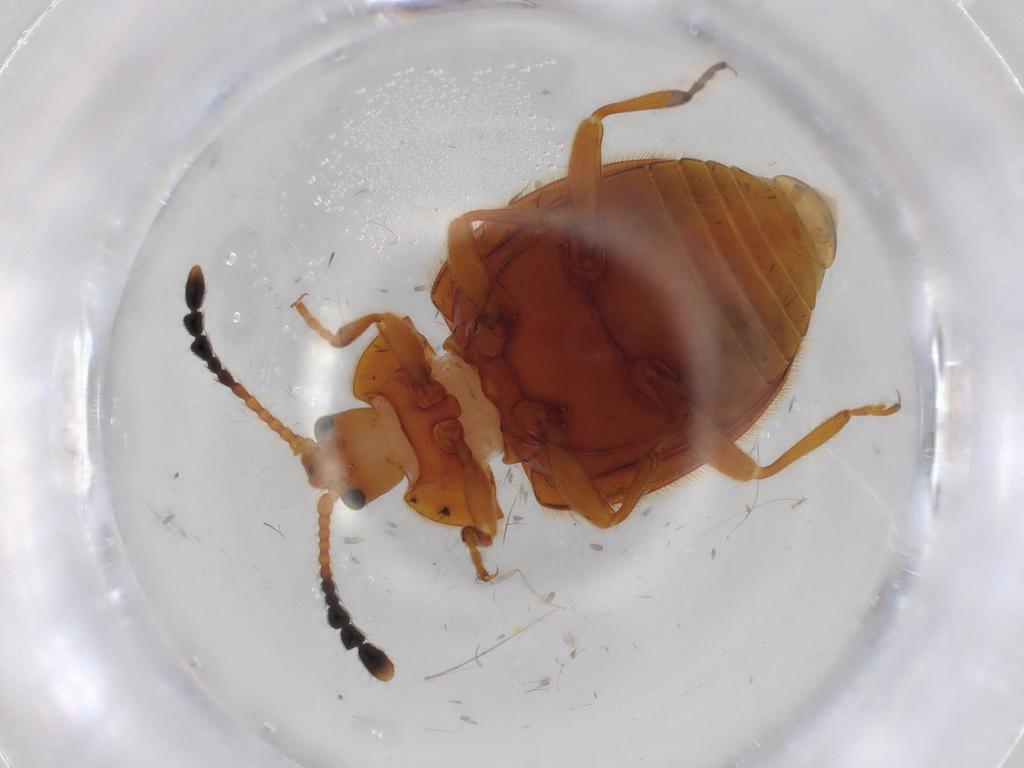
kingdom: Animalia
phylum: Arthropoda
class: Insecta
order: Coleoptera
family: Endomychidae
